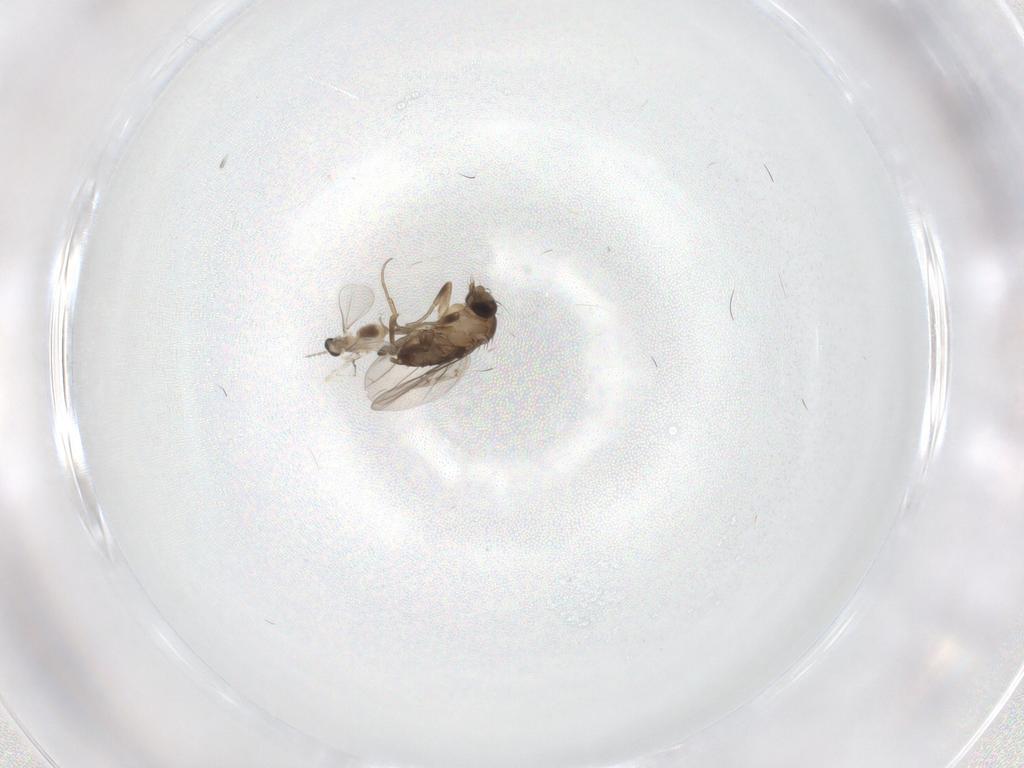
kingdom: Animalia
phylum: Arthropoda
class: Insecta
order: Diptera
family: Phoridae
